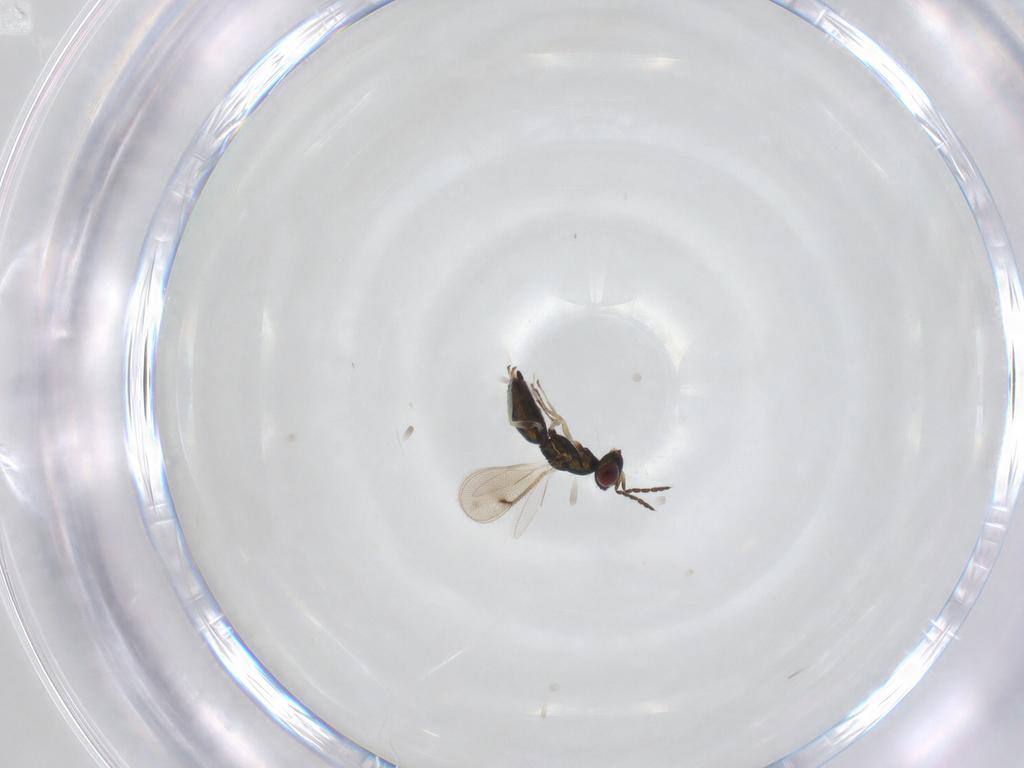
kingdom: Animalia
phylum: Arthropoda
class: Insecta
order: Hymenoptera
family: Eulophidae
